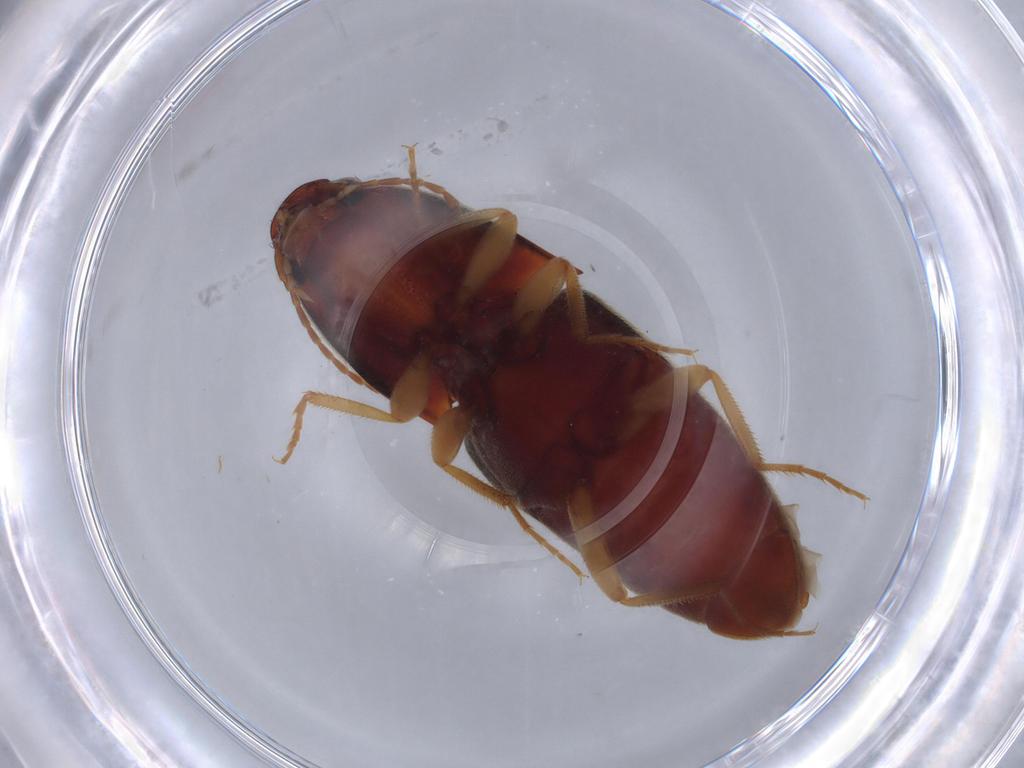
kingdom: Animalia
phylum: Arthropoda
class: Insecta
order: Coleoptera
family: Elateridae
